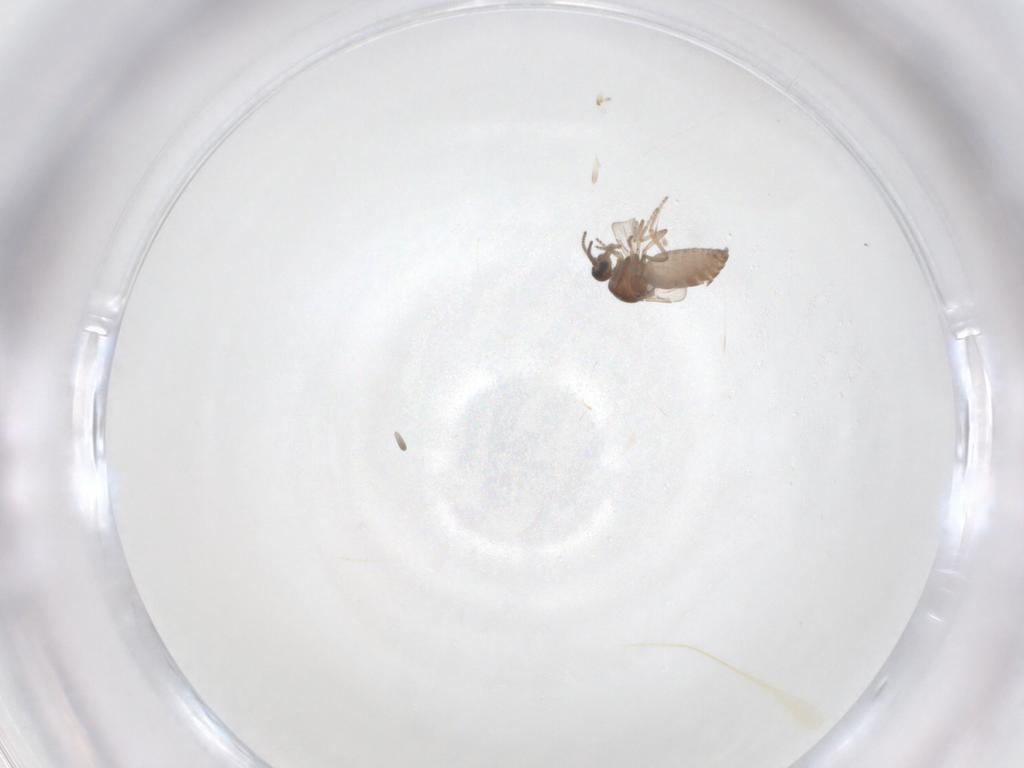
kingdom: Animalia
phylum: Arthropoda
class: Insecta
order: Diptera
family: Ceratopogonidae
